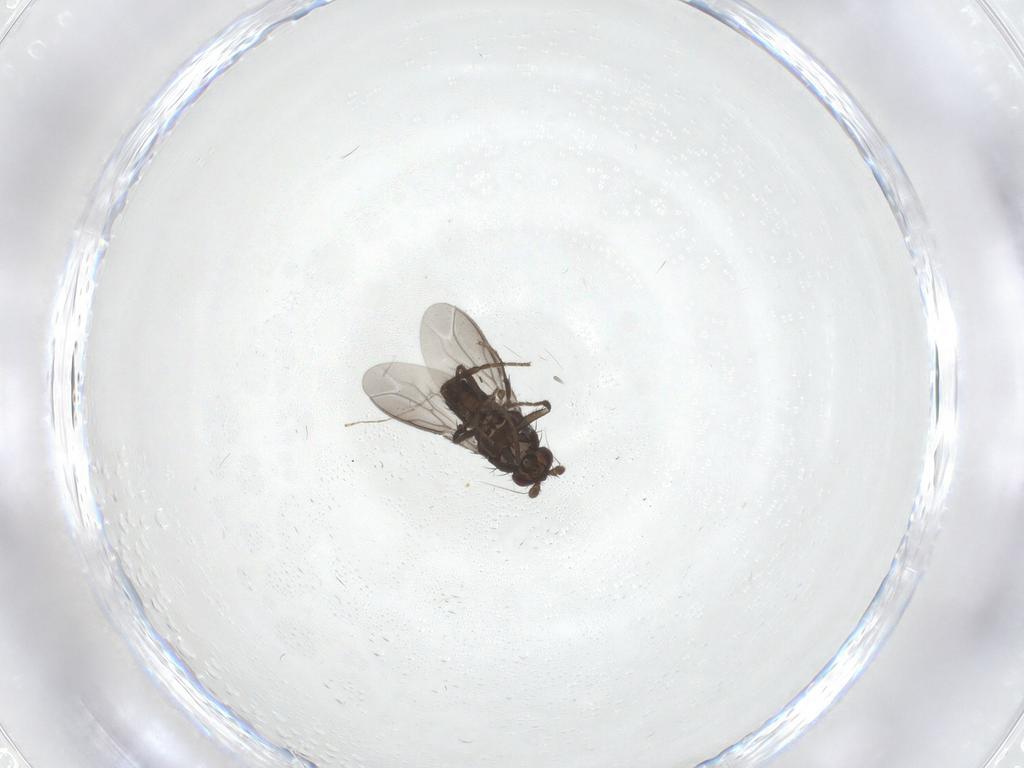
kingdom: Animalia
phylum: Arthropoda
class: Insecta
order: Diptera
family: Sphaeroceridae
